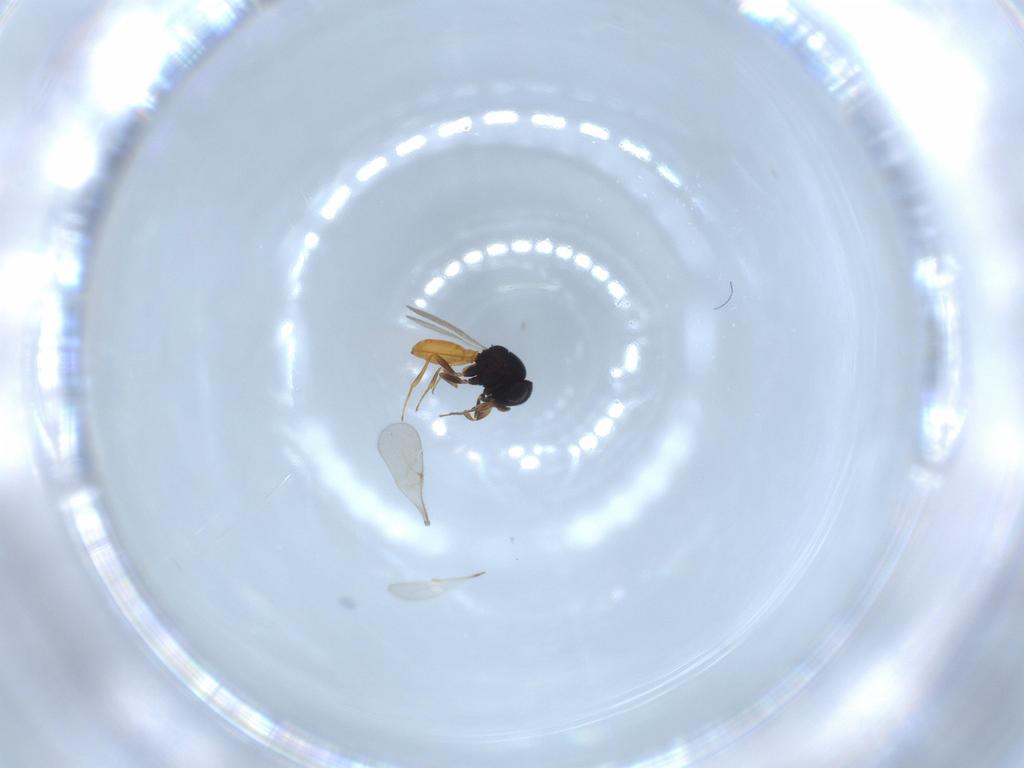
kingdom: Animalia
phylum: Arthropoda
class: Insecta
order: Hymenoptera
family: Scelionidae
